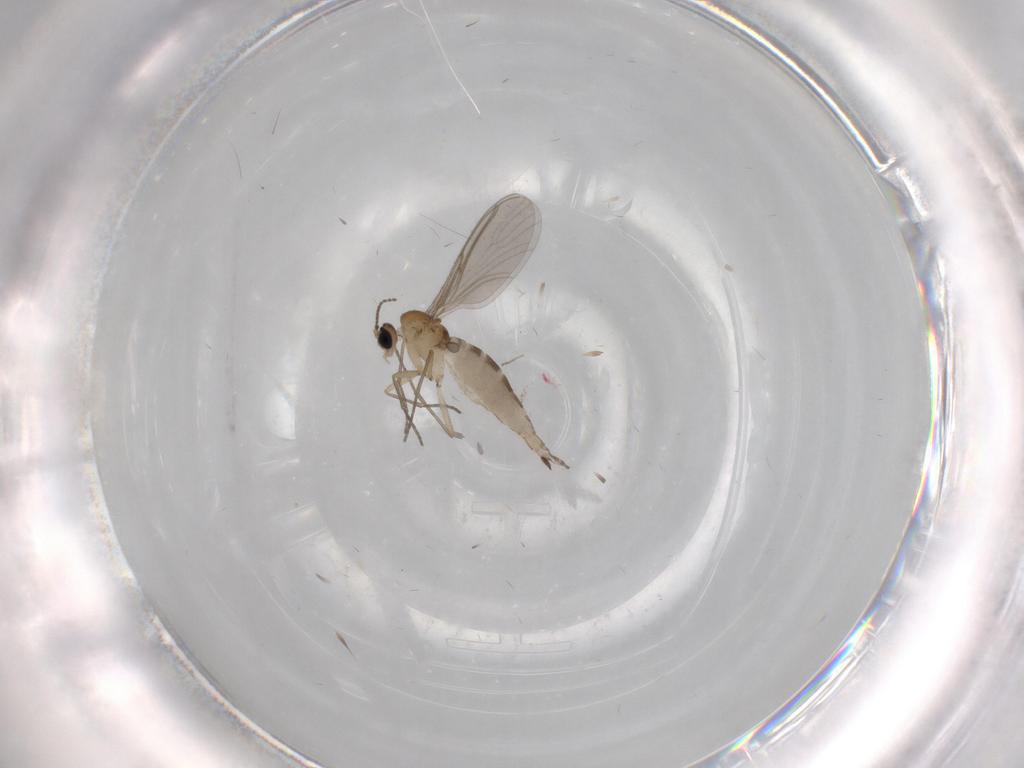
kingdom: Animalia
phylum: Arthropoda
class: Insecta
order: Diptera
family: Sciaridae
